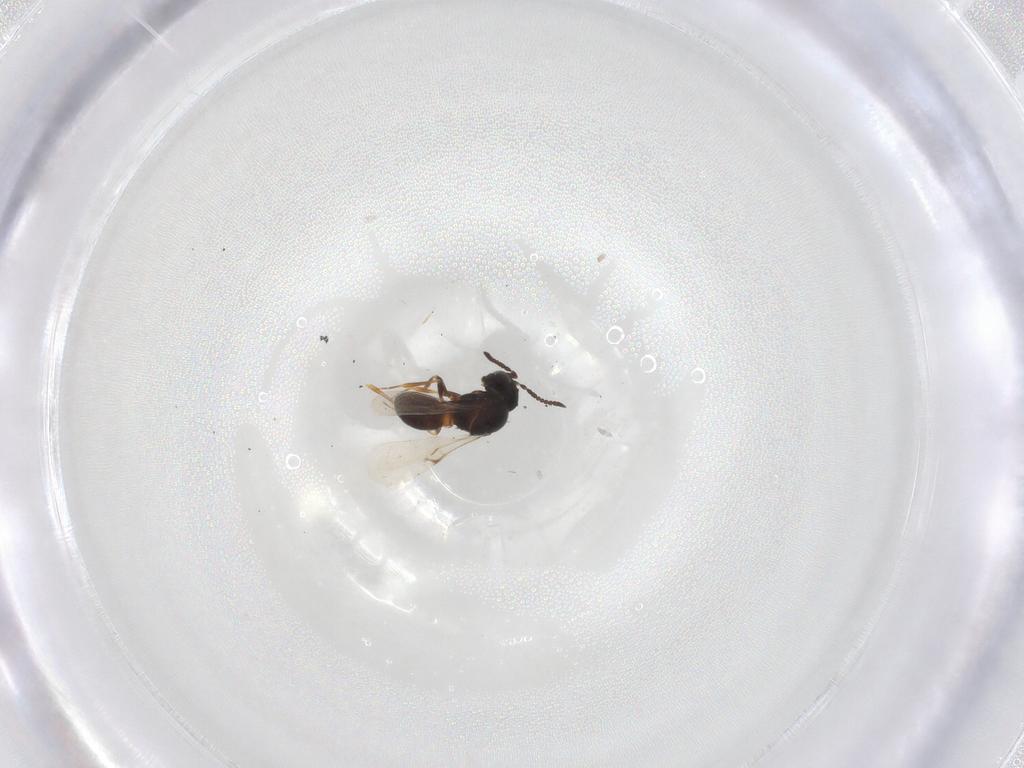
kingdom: Animalia
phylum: Arthropoda
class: Arachnida
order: Araneae
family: Pholcidae
